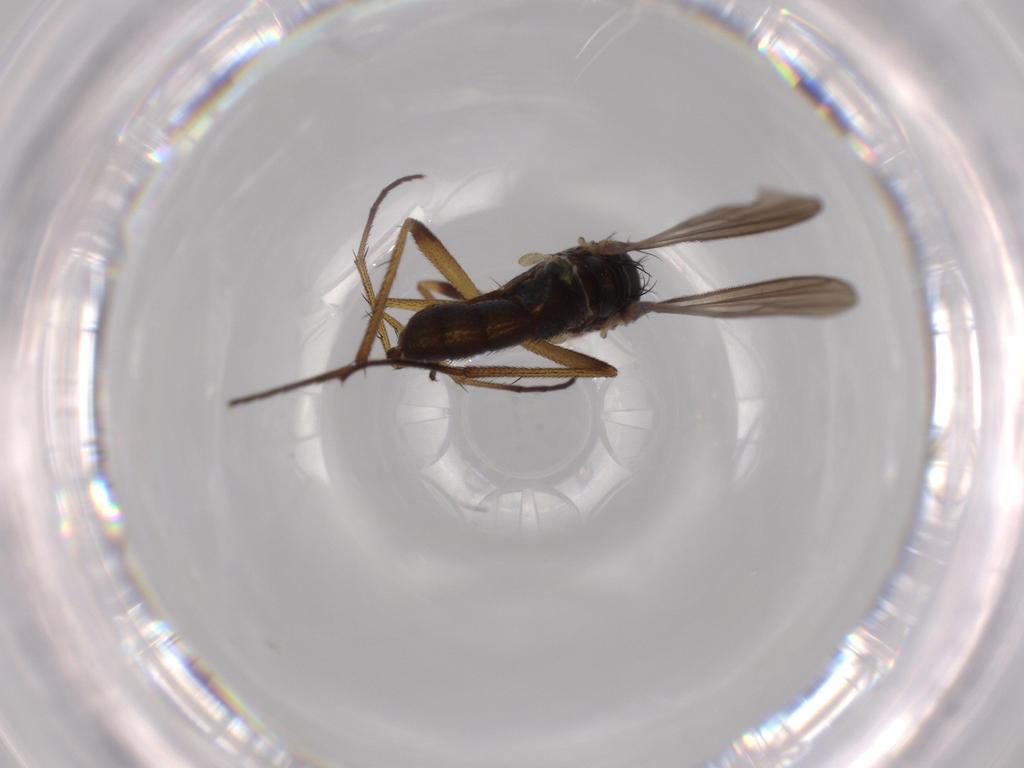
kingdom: Animalia
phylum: Arthropoda
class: Insecta
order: Diptera
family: Dolichopodidae
